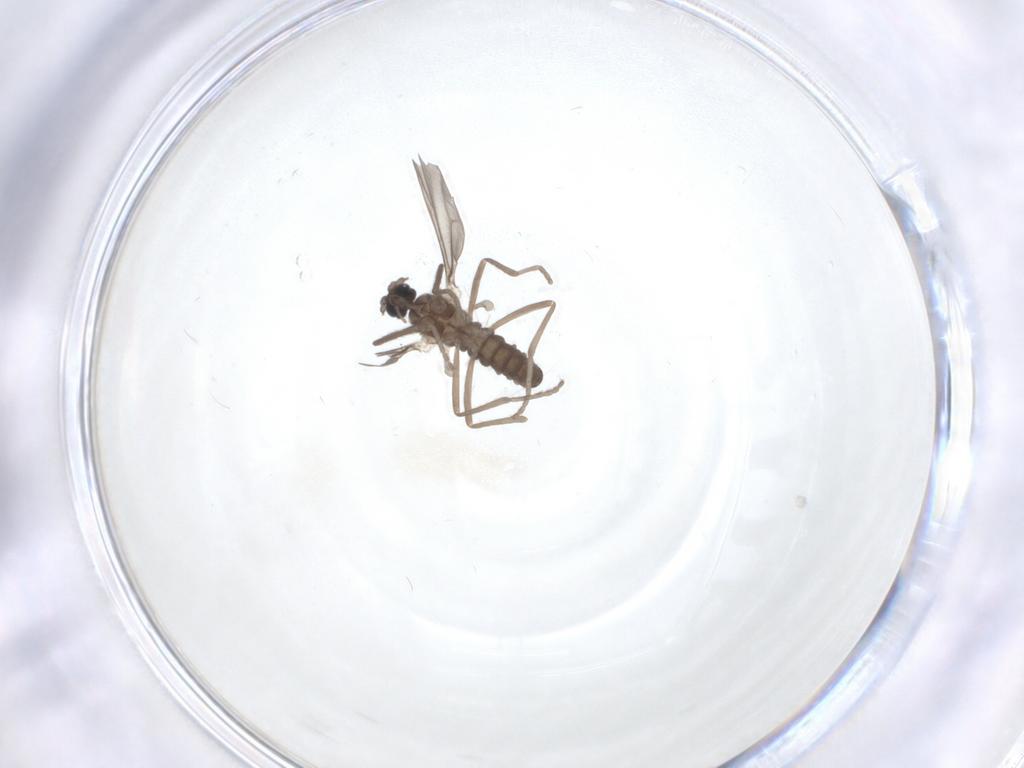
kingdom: Animalia
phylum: Arthropoda
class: Insecta
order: Diptera
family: Cecidomyiidae
